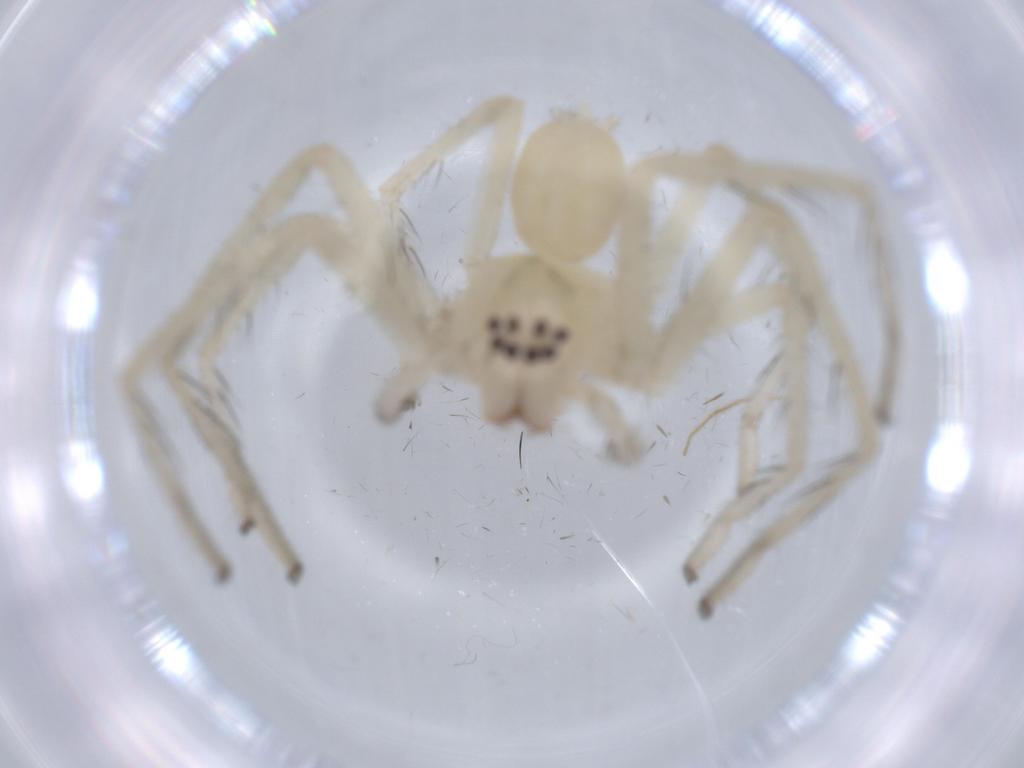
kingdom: Animalia
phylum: Arthropoda
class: Arachnida
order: Araneae
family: Sparassidae
